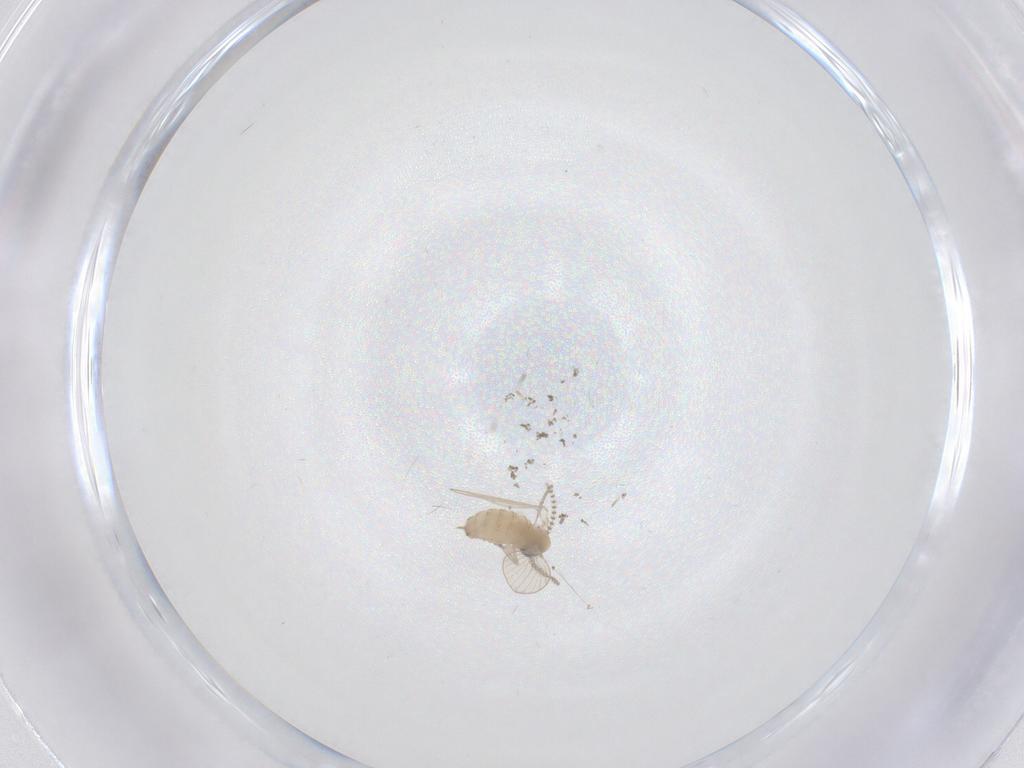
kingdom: Animalia
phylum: Arthropoda
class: Insecta
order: Diptera
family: Psychodidae
